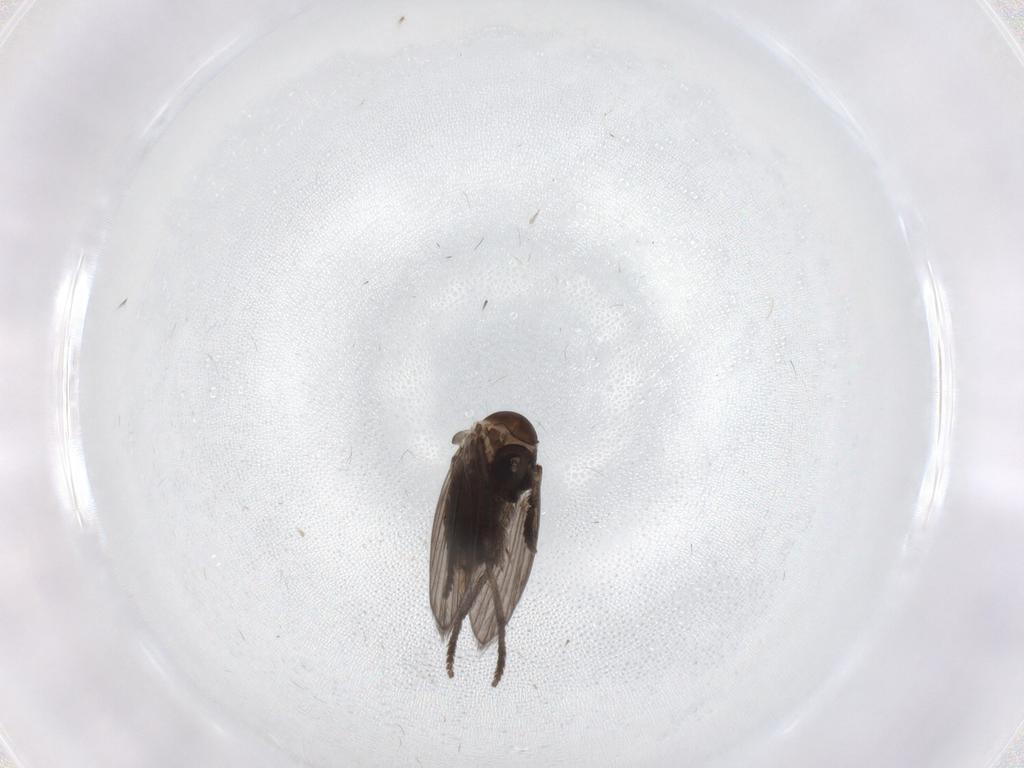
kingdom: Animalia
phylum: Arthropoda
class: Insecta
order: Diptera
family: Psychodidae
